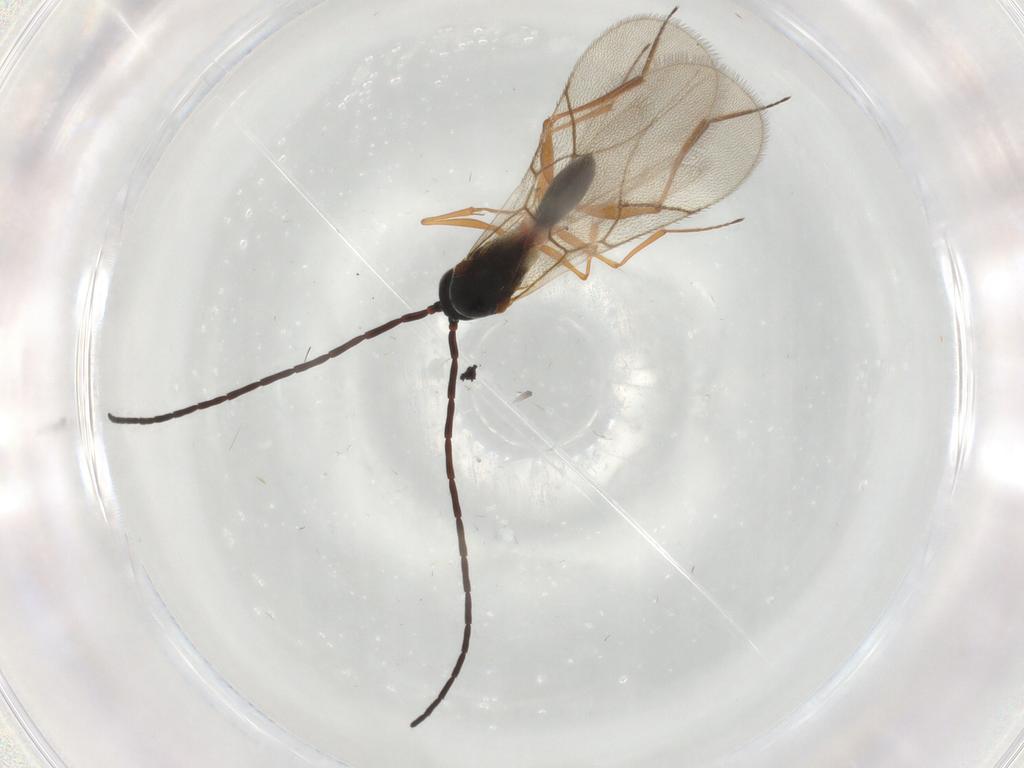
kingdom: Animalia
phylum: Arthropoda
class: Insecta
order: Hymenoptera
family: Figitidae
